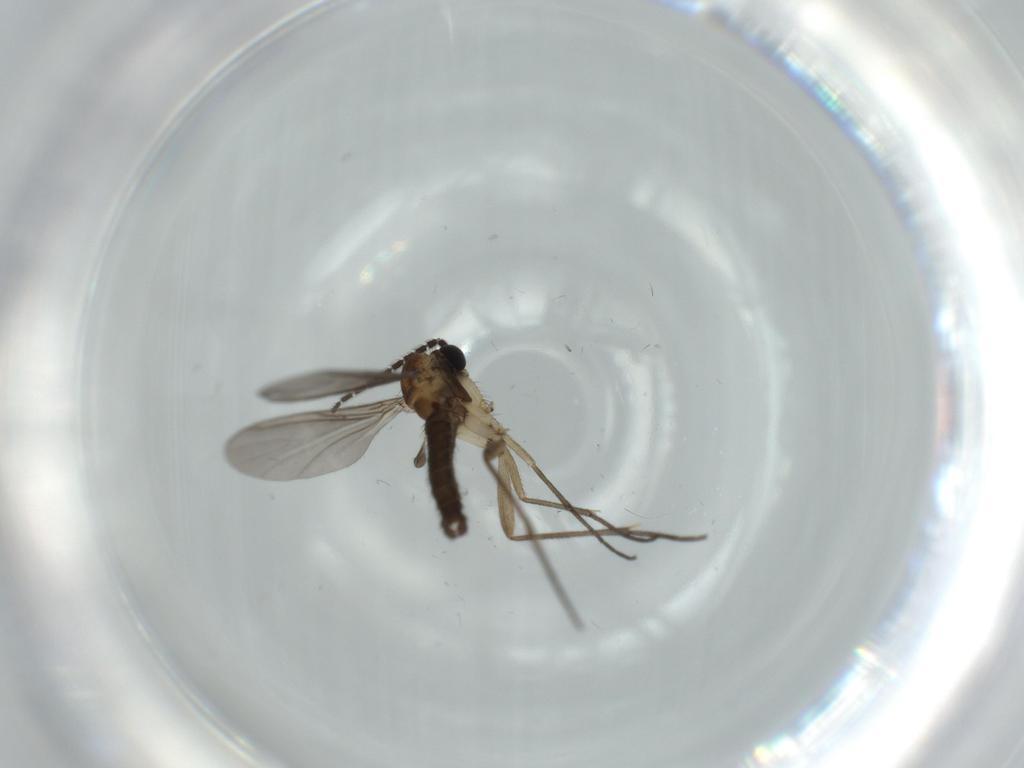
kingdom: Animalia
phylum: Arthropoda
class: Insecta
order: Diptera
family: Sciaridae
